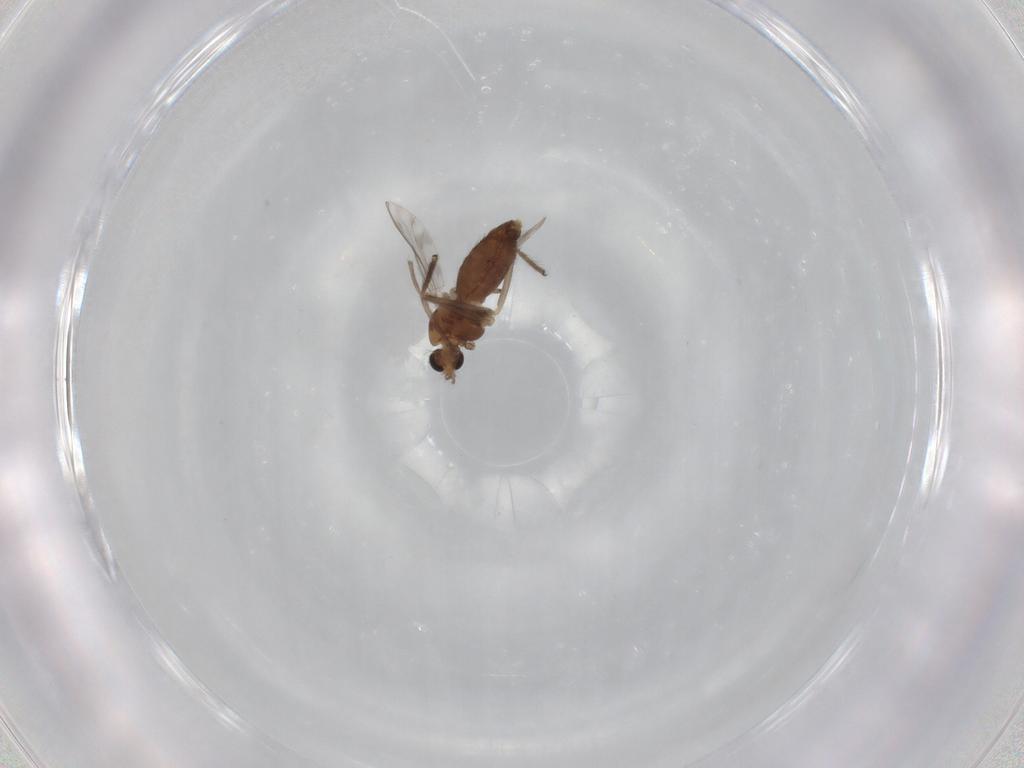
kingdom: Animalia
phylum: Arthropoda
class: Insecta
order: Diptera
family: Chironomidae
